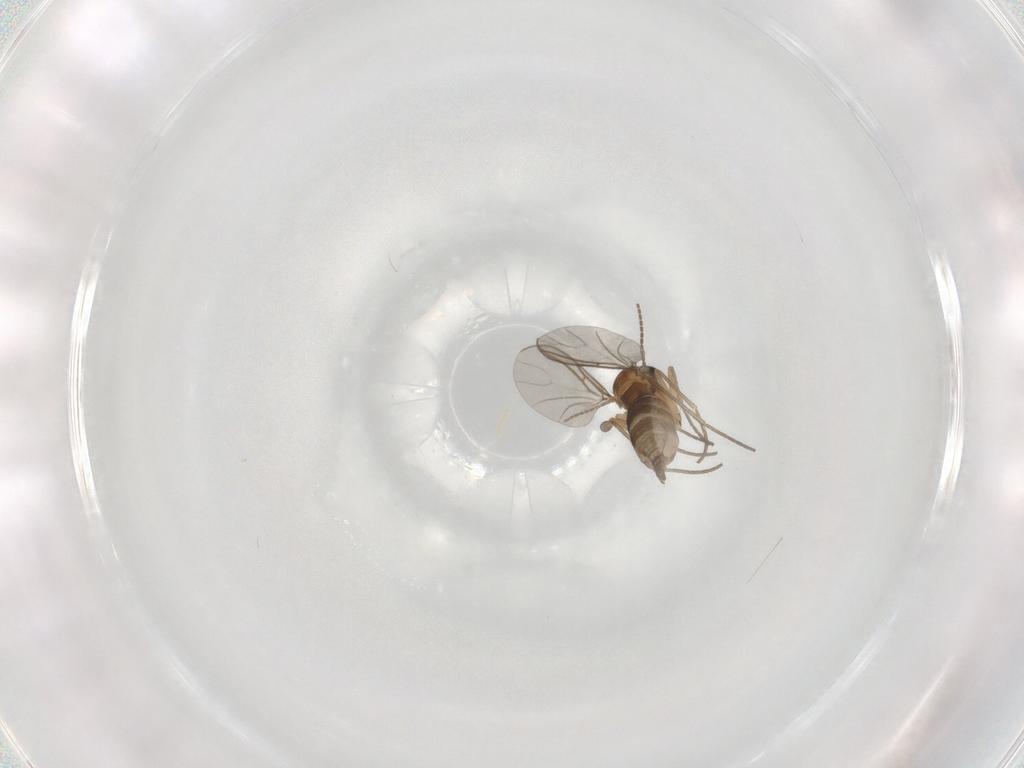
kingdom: Animalia
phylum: Arthropoda
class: Insecta
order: Diptera
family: Sciaridae
